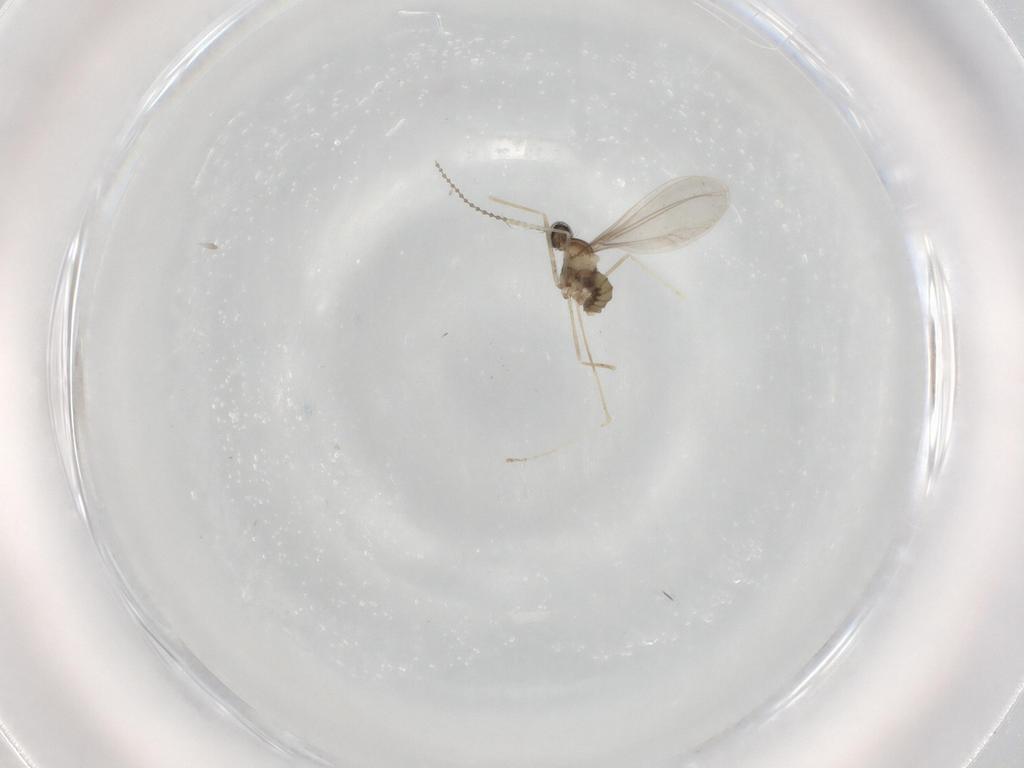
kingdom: Animalia
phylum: Arthropoda
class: Insecta
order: Diptera
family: Cecidomyiidae
